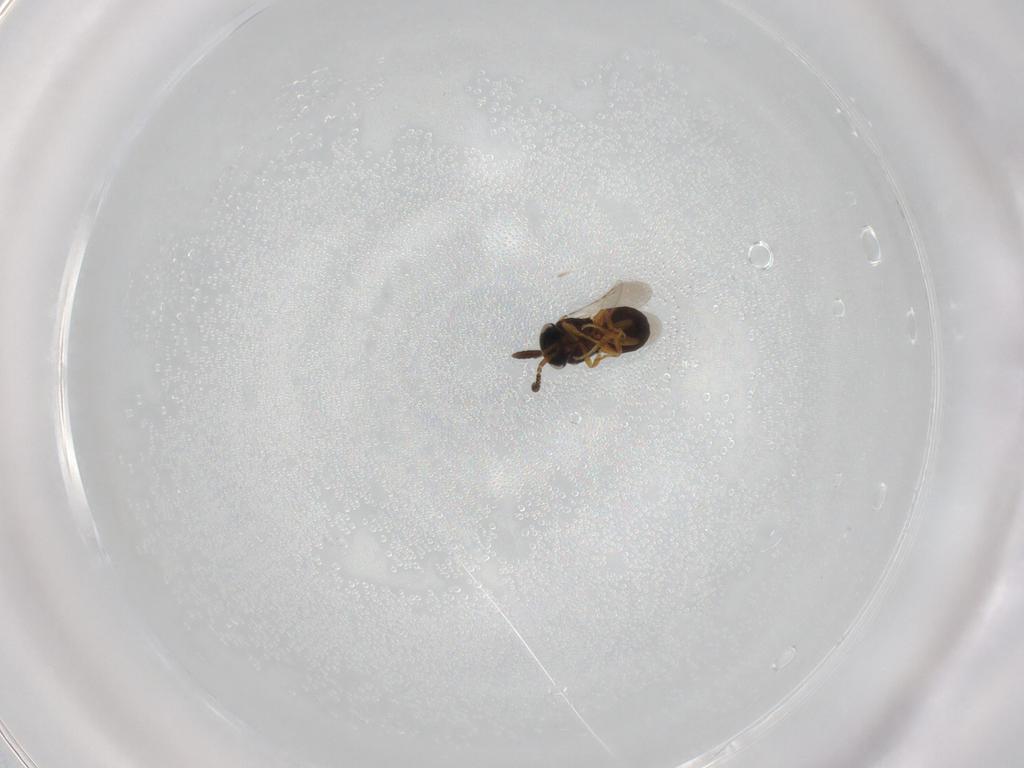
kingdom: Animalia
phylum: Arthropoda
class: Insecta
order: Hymenoptera
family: Scelionidae
